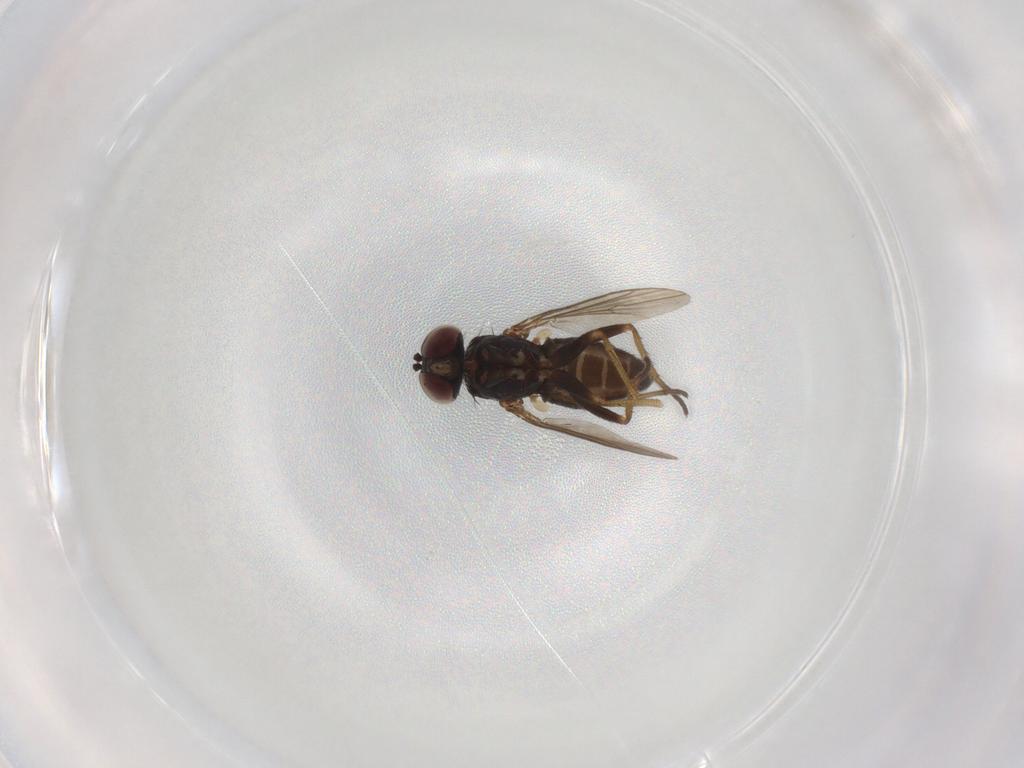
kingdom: Animalia
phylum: Arthropoda
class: Insecta
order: Diptera
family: Dolichopodidae
